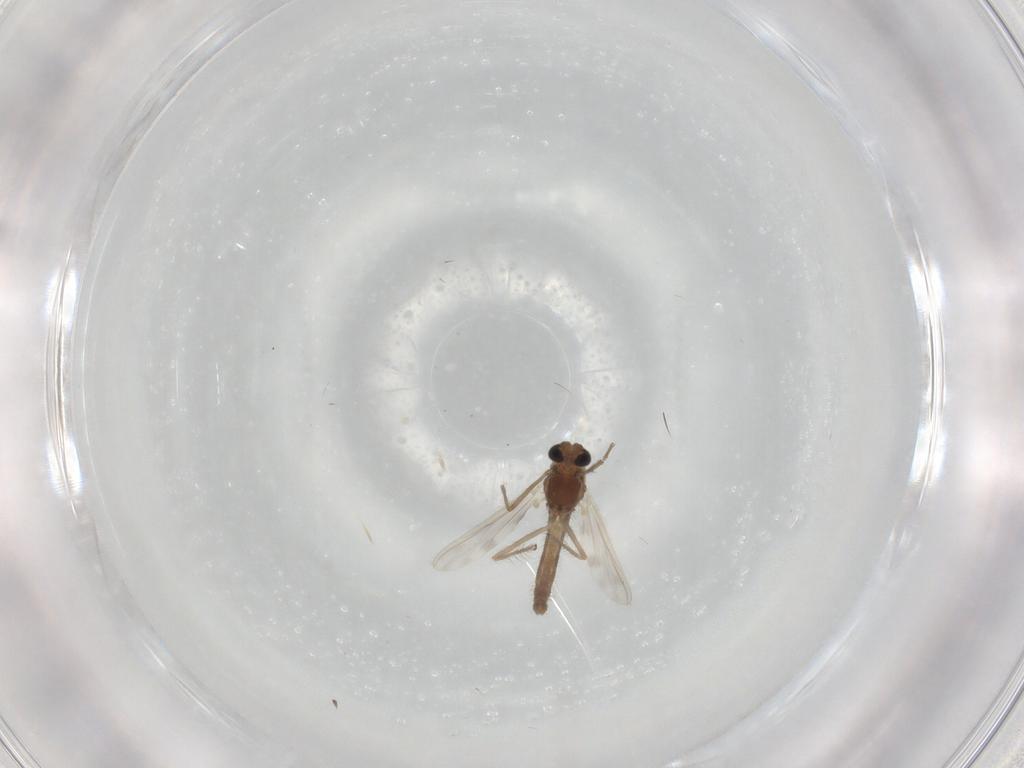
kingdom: Animalia
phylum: Arthropoda
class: Insecta
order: Diptera
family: Chironomidae
